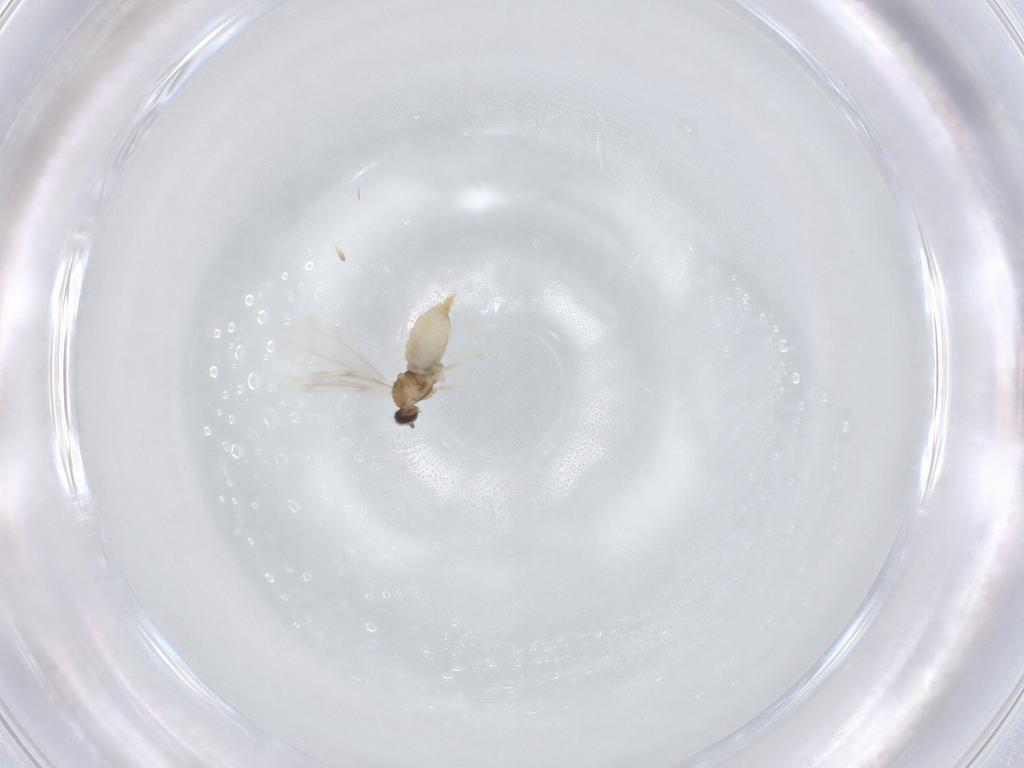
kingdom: Animalia
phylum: Arthropoda
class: Insecta
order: Diptera
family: Cecidomyiidae
